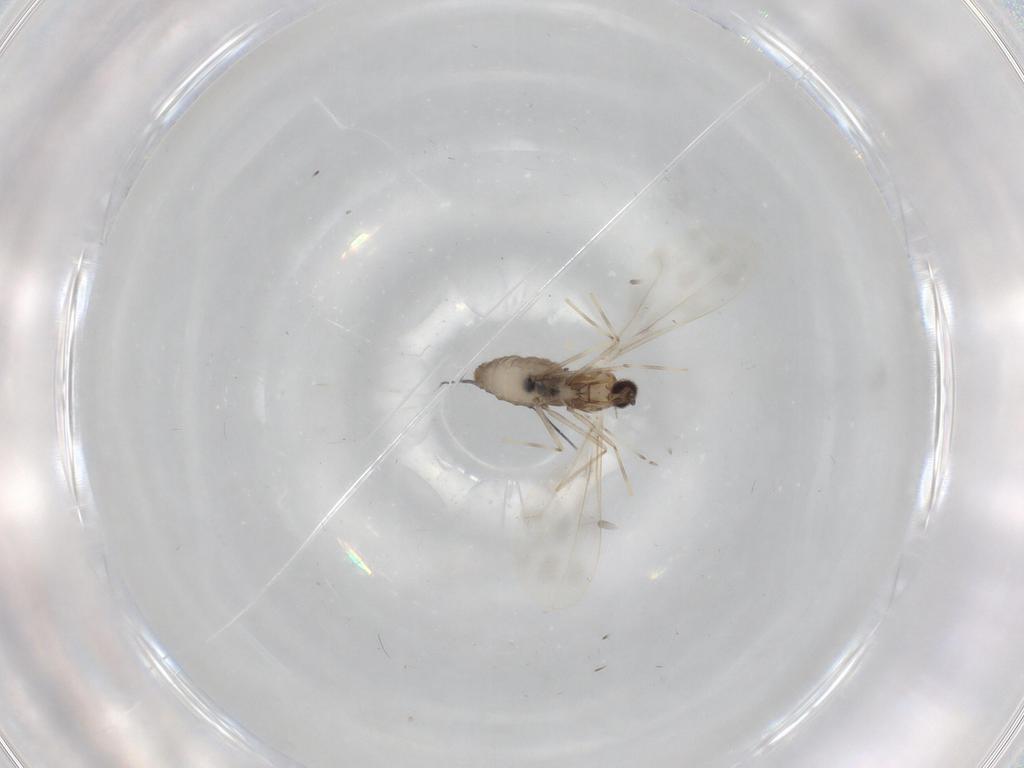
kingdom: Animalia
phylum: Arthropoda
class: Insecta
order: Diptera
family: Cecidomyiidae
